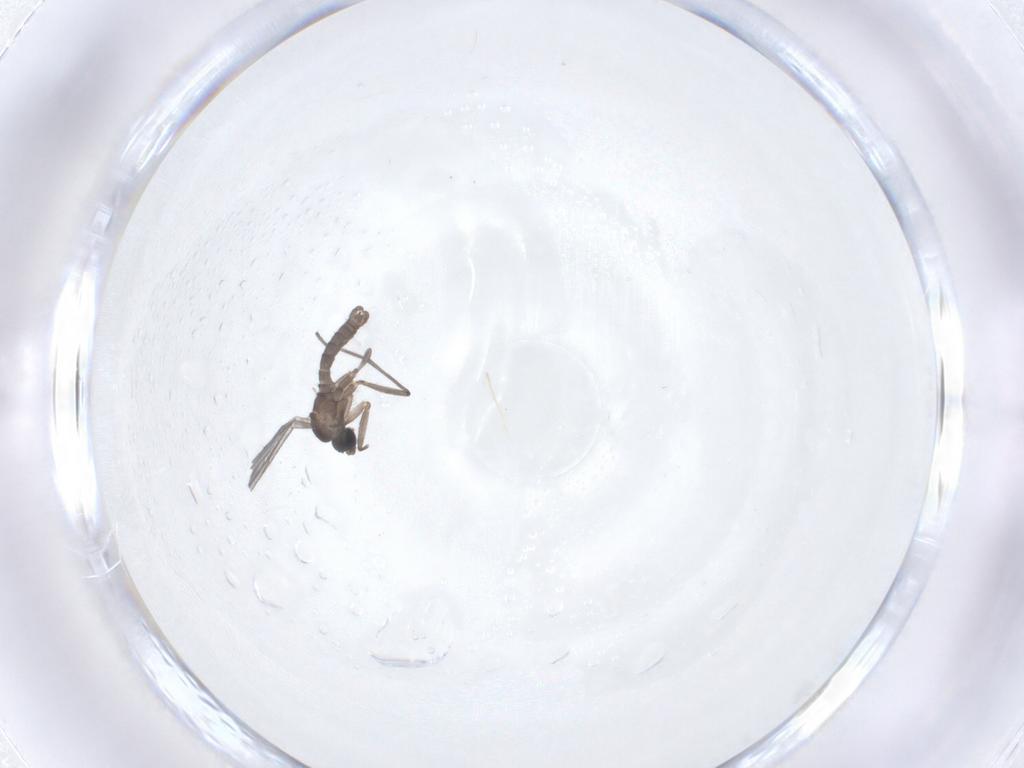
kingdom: Animalia
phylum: Arthropoda
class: Insecta
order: Diptera
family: Sciaridae
